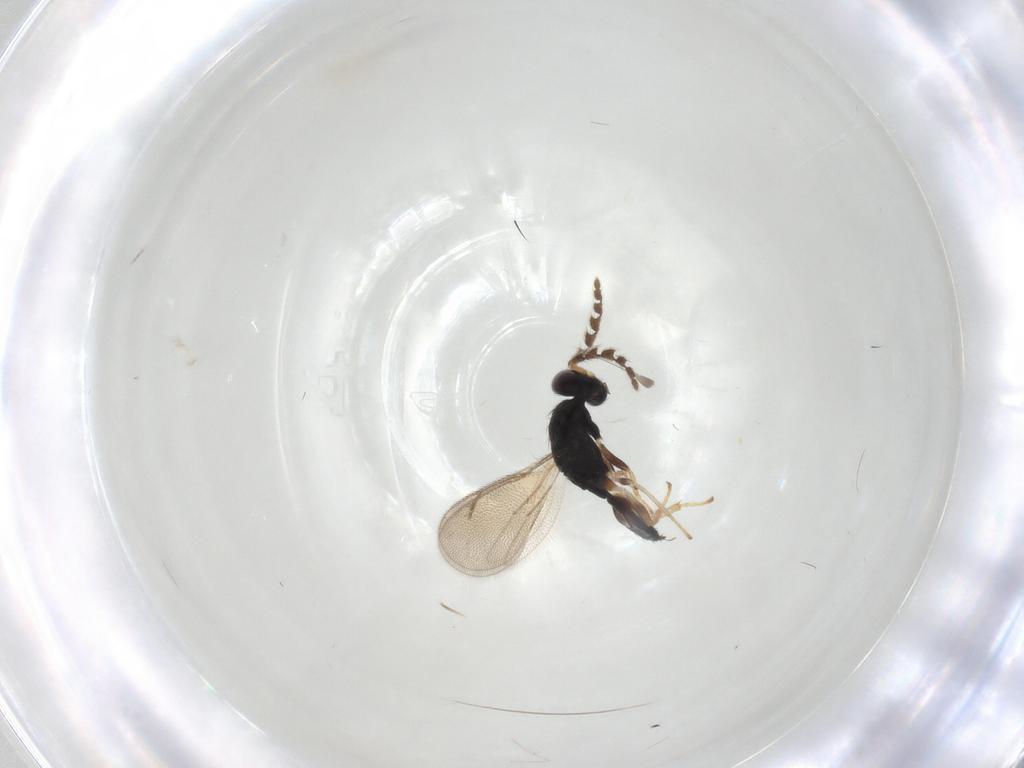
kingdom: Animalia
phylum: Arthropoda
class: Insecta
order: Hymenoptera
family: Eulophidae
